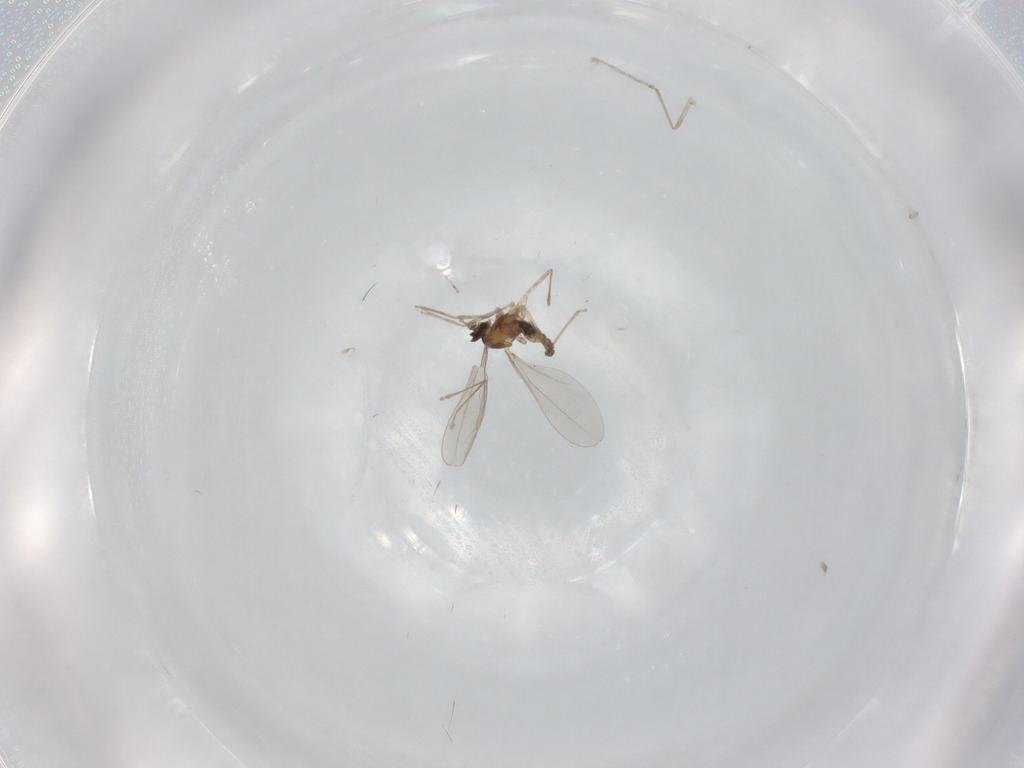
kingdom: Animalia
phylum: Arthropoda
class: Insecta
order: Diptera
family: Cecidomyiidae
